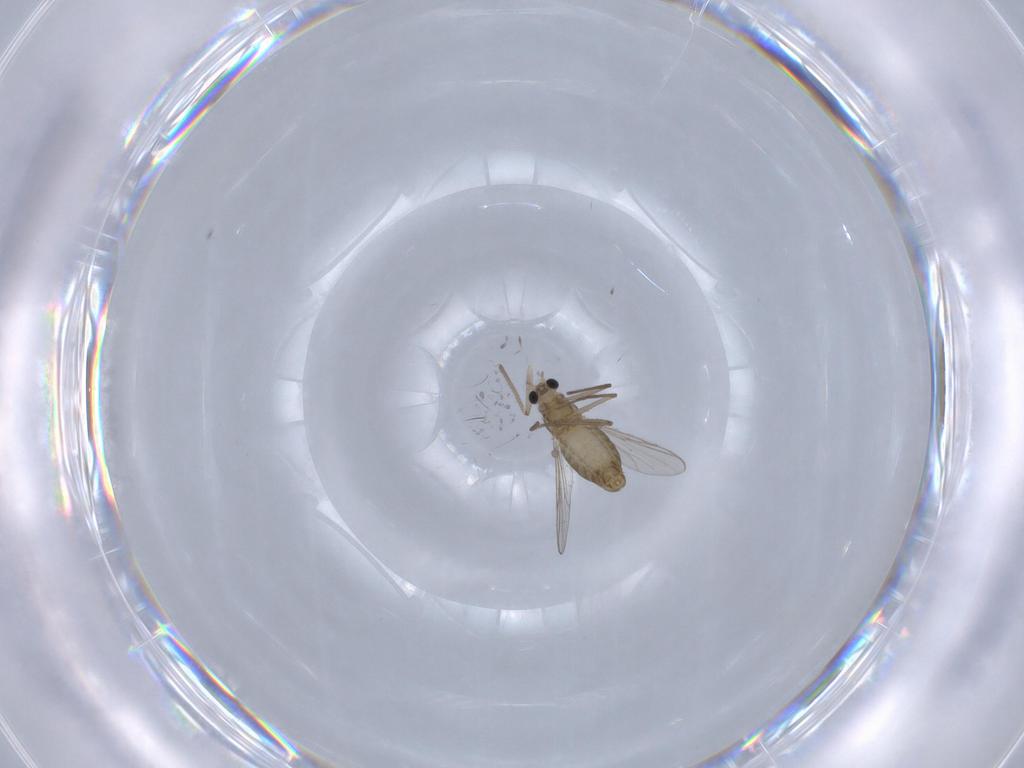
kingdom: Animalia
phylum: Arthropoda
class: Insecta
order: Diptera
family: Chironomidae
